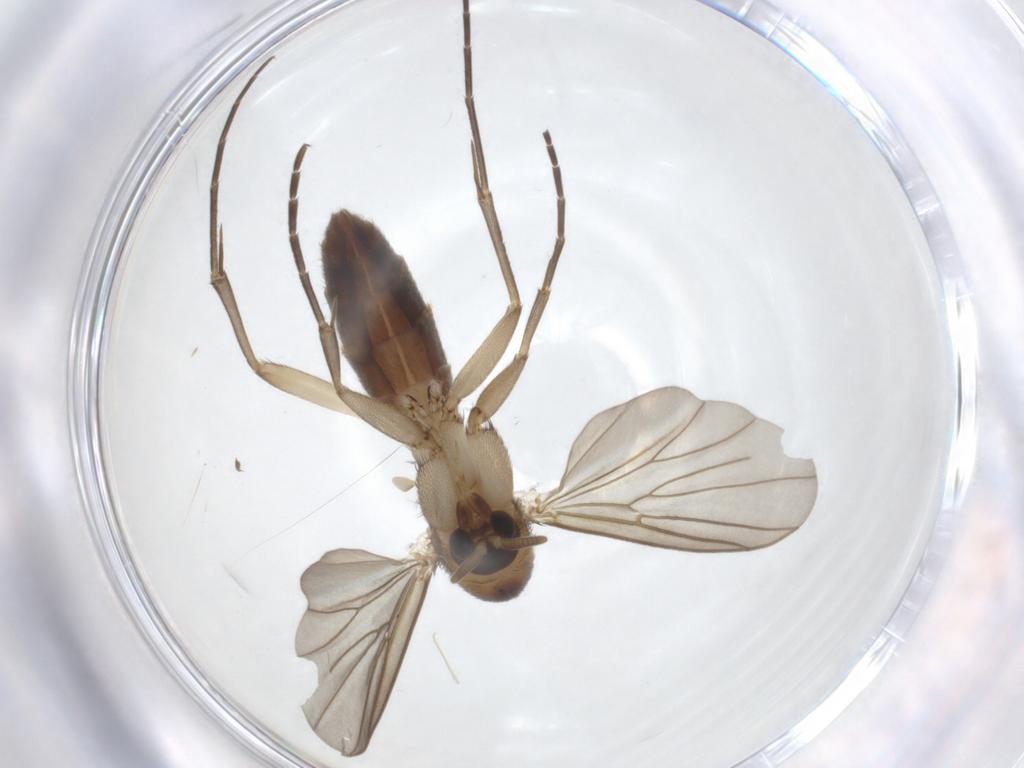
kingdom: Animalia
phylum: Arthropoda
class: Insecta
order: Diptera
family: Mycetophilidae
